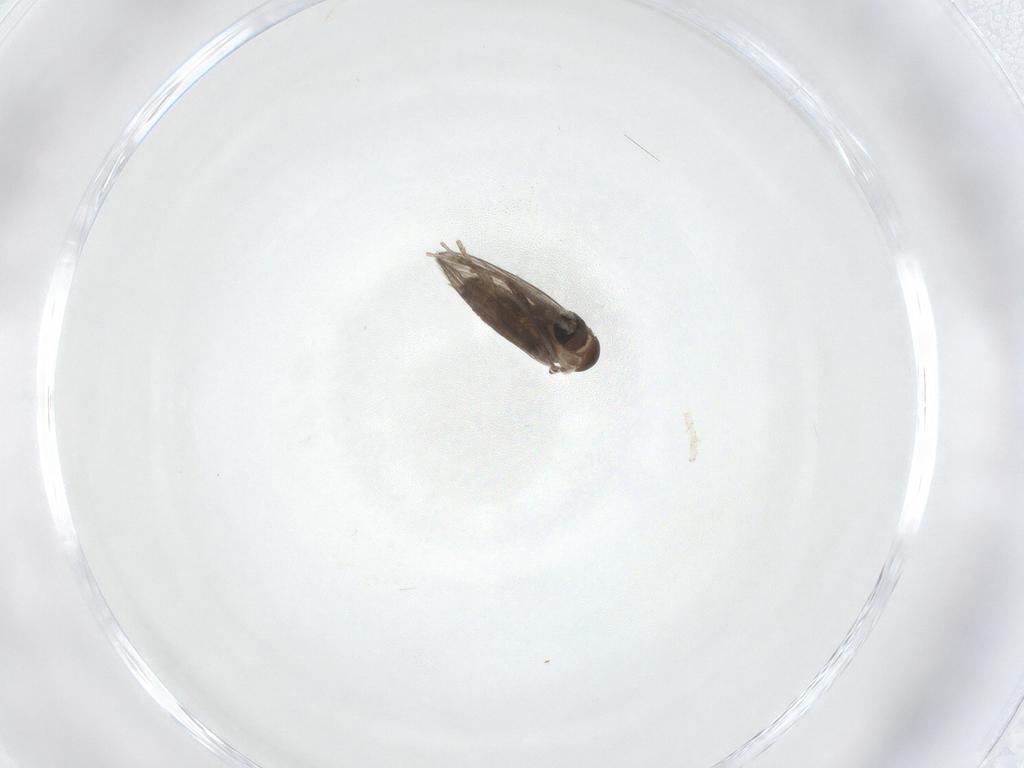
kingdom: Animalia
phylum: Arthropoda
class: Insecta
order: Diptera
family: Psychodidae
